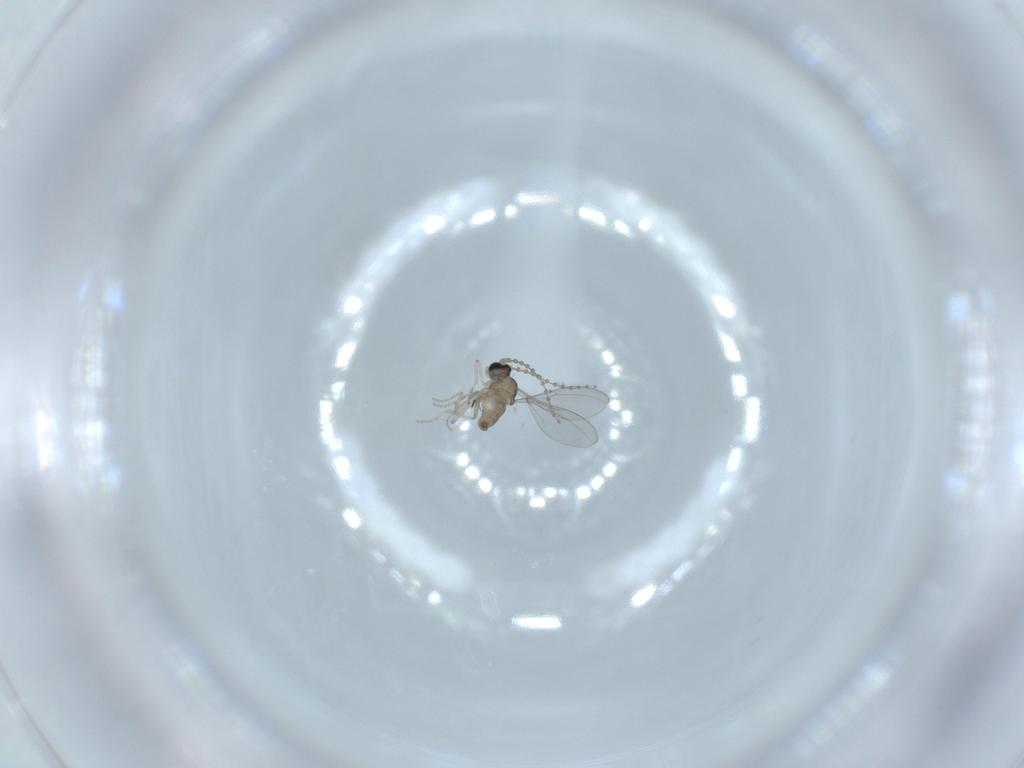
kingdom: Animalia
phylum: Arthropoda
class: Insecta
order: Diptera
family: Cecidomyiidae
